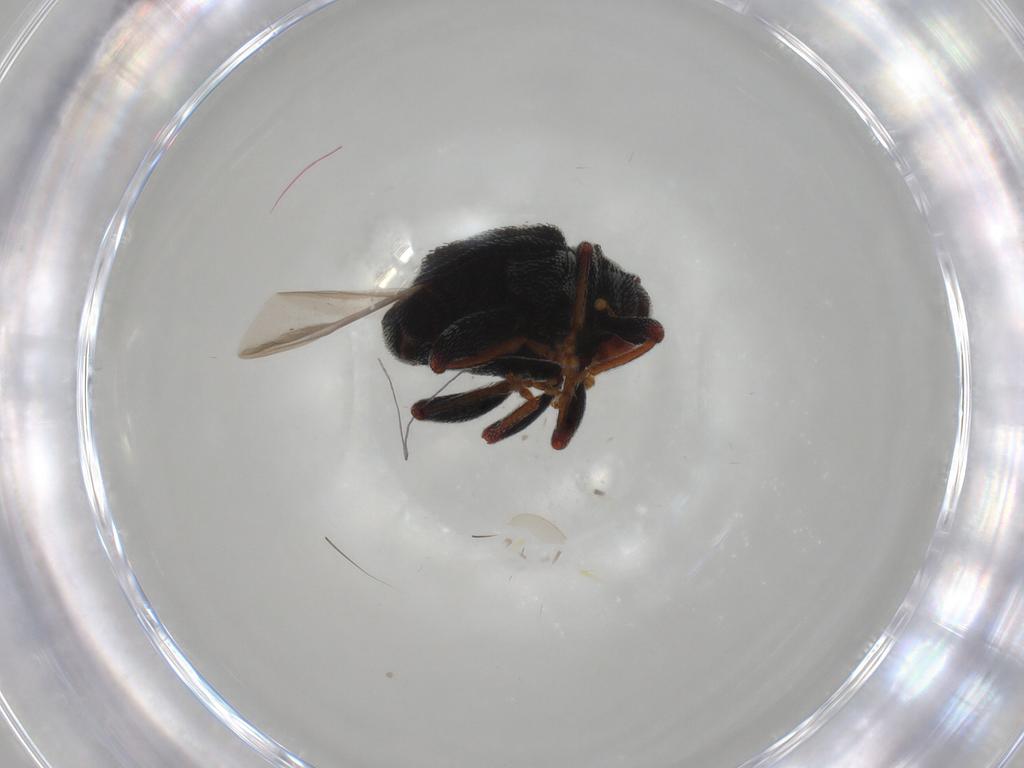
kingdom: Animalia
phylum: Arthropoda
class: Insecta
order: Coleoptera
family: Curculionidae
